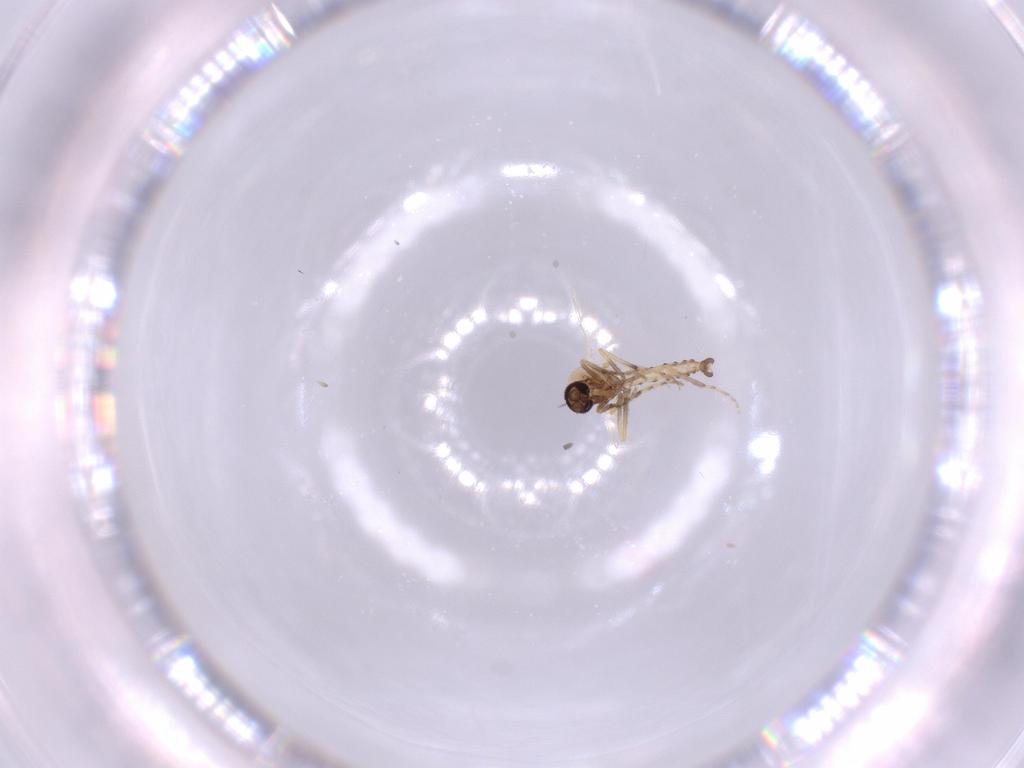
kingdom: Animalia
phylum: Arthropoda
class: Insecta
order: Diptera
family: Ceratopogonidae
